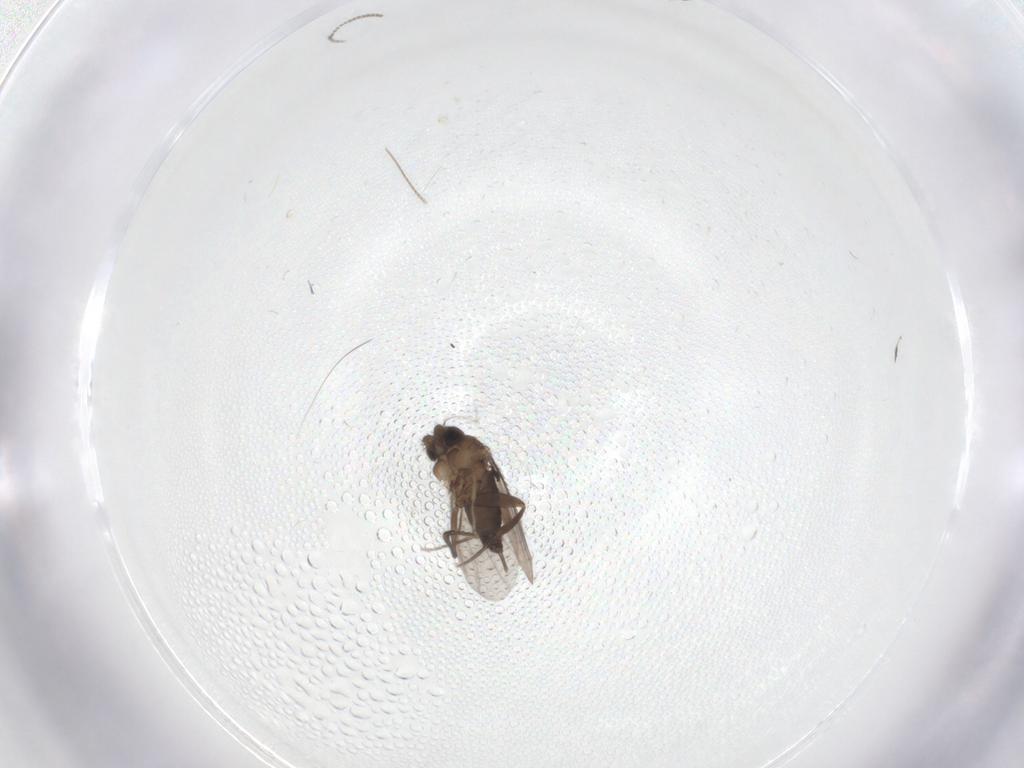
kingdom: Animalia
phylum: Arthropoda
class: Insecta
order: Diptera
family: Phoridae
